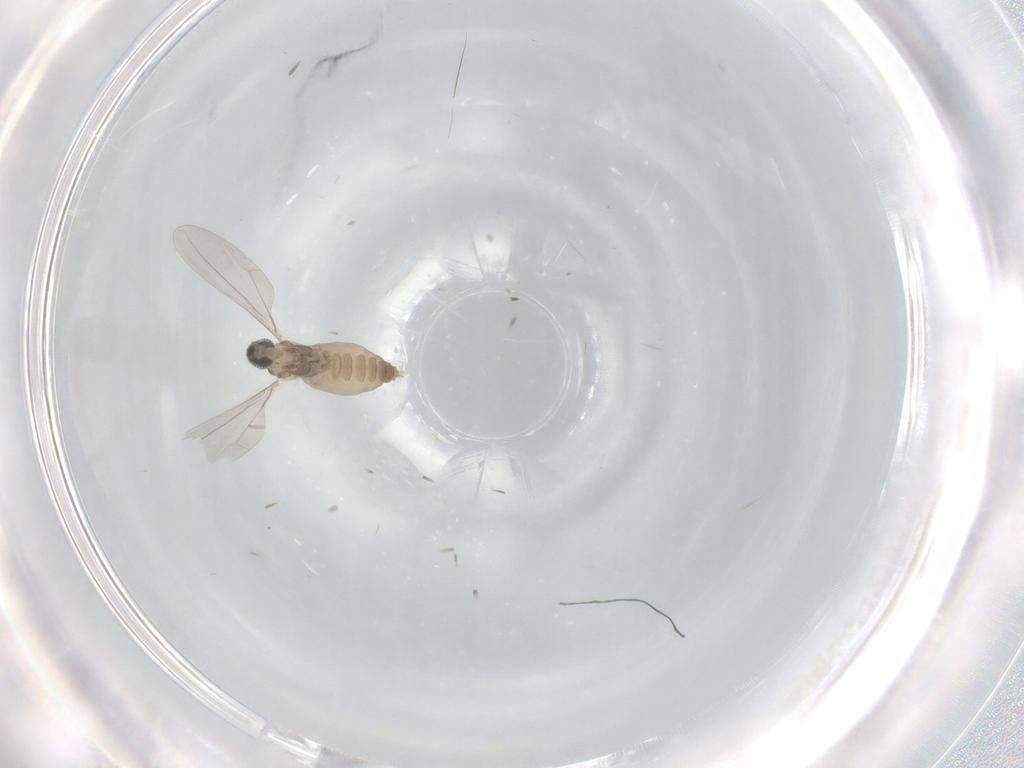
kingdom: Animalia
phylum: Arthropoda
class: Insecta
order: Diptera
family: Cecidomyiidae
